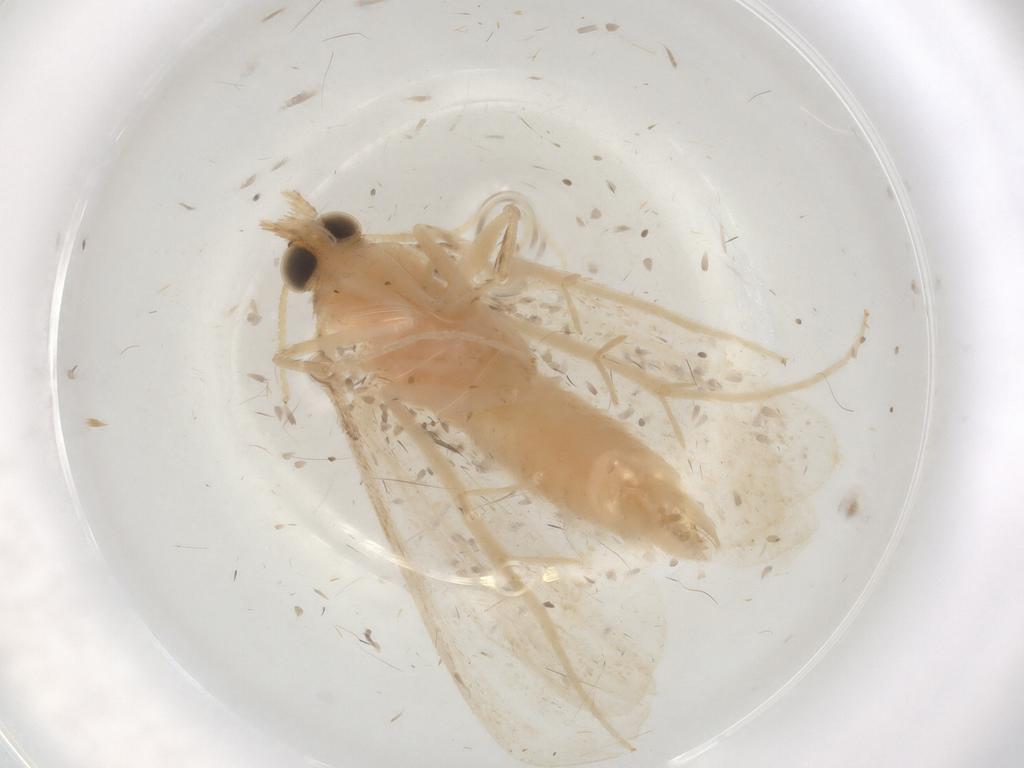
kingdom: Animalia
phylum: Arthropoda
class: Insecta
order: Lepidoptera
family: Crambidae
